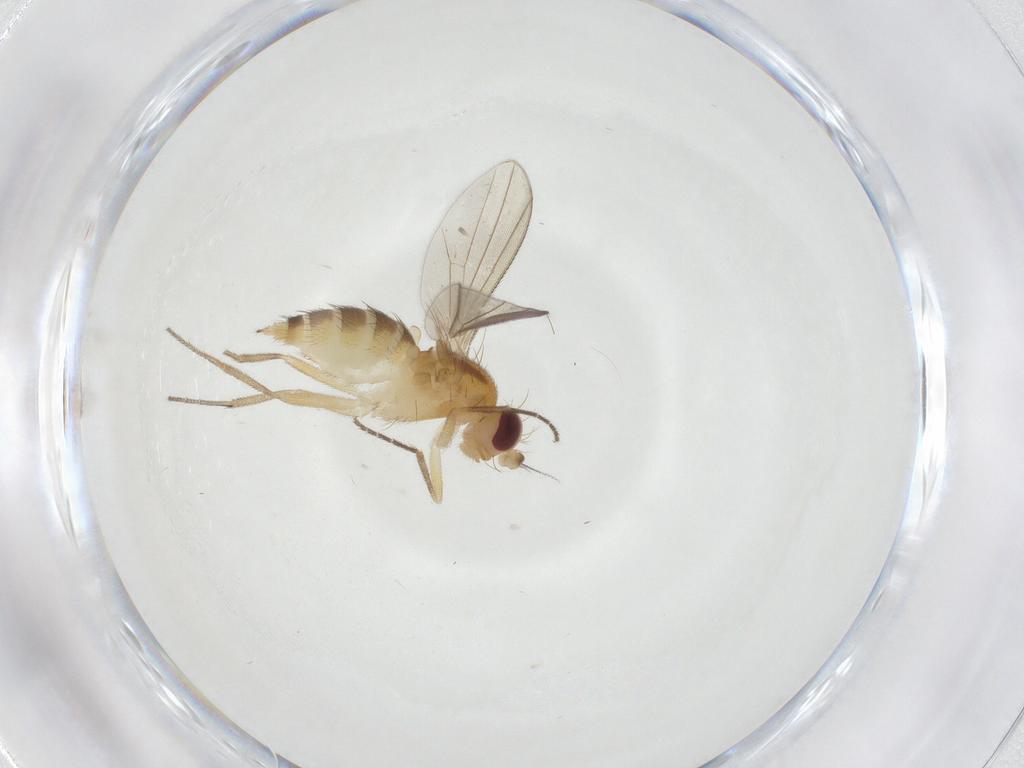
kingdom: Animalia
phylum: Arthropoda
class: Insecta
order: Diptera
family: Clusiidae
